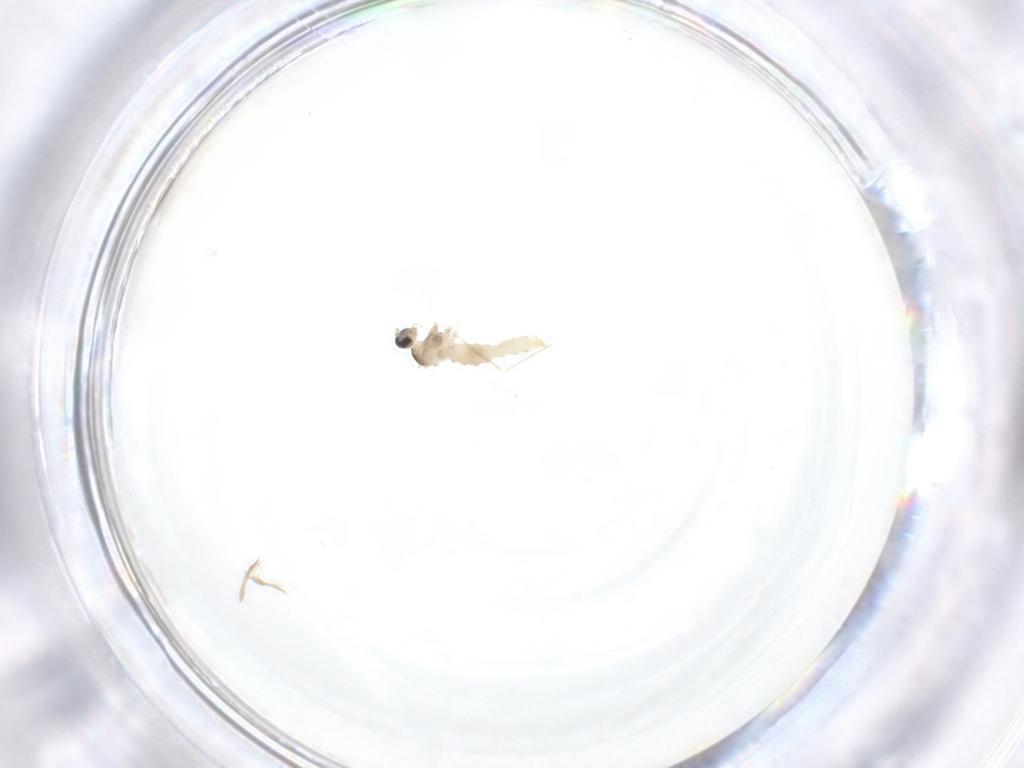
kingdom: Animalia
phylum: Arthropoda
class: Insecta
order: Diptera
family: Cecidomyiidae
